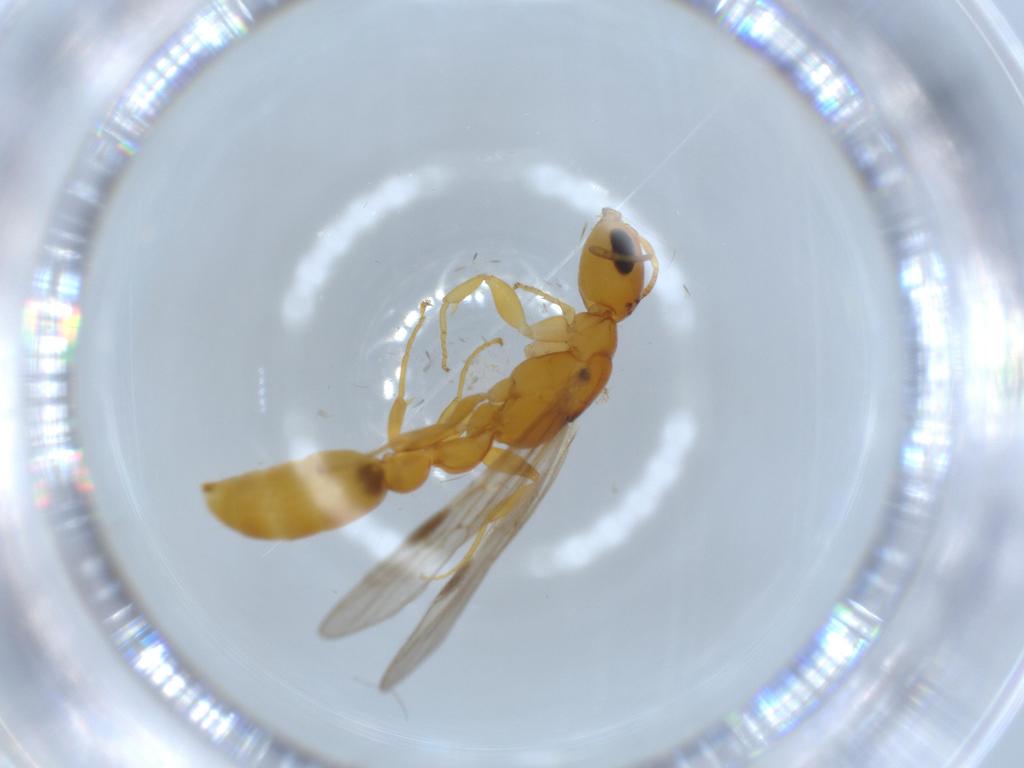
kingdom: Animalia
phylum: Arthropoda
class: Insecta
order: Hymenoptera
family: Formicidae
